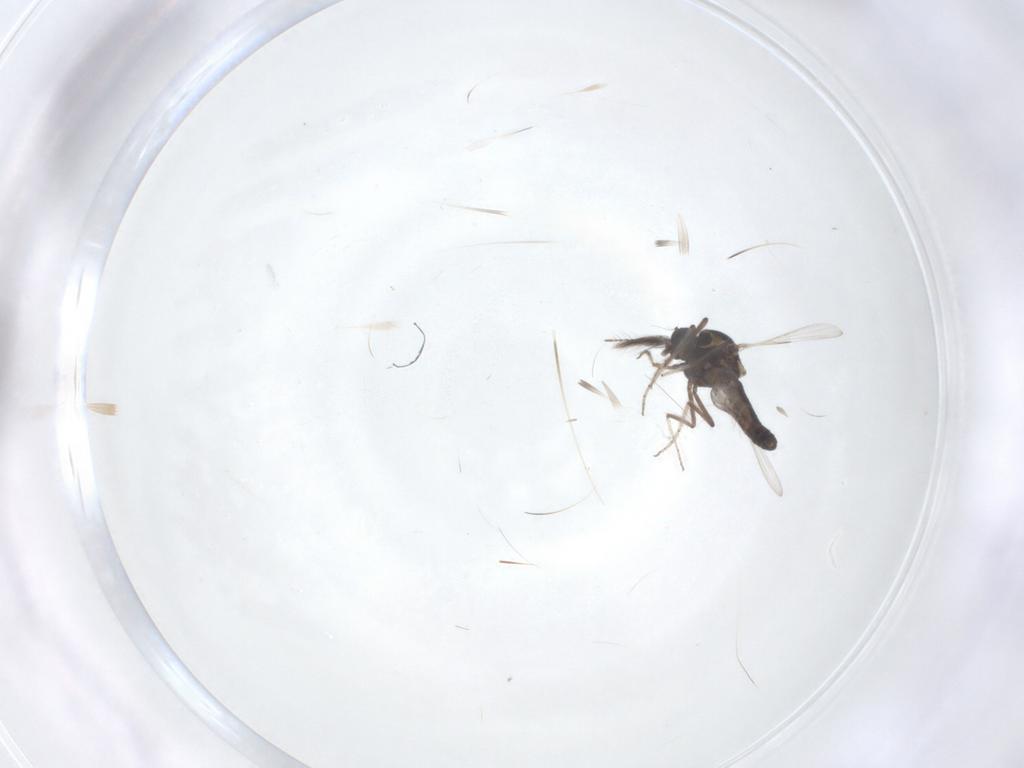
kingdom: Animalia
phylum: Arthropoda
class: Insecta
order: Diptera
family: Ceratopogonidae
